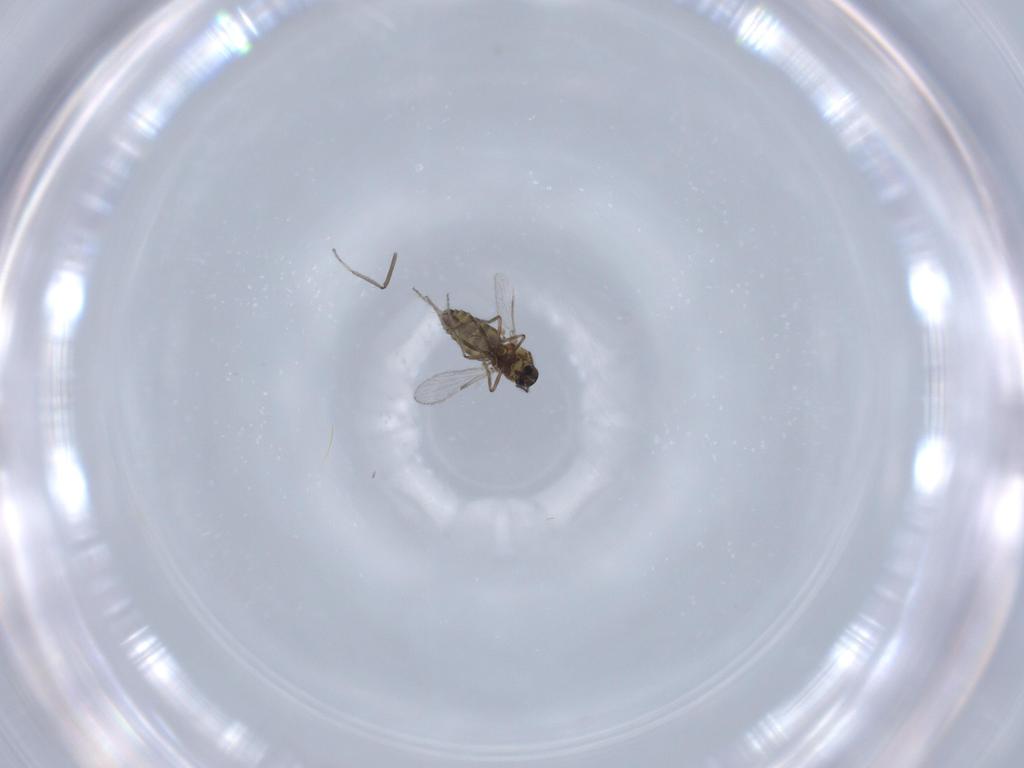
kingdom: Animalia
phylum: Arthropoda
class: Insecta
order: Diptera
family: Ceratopogonidae
